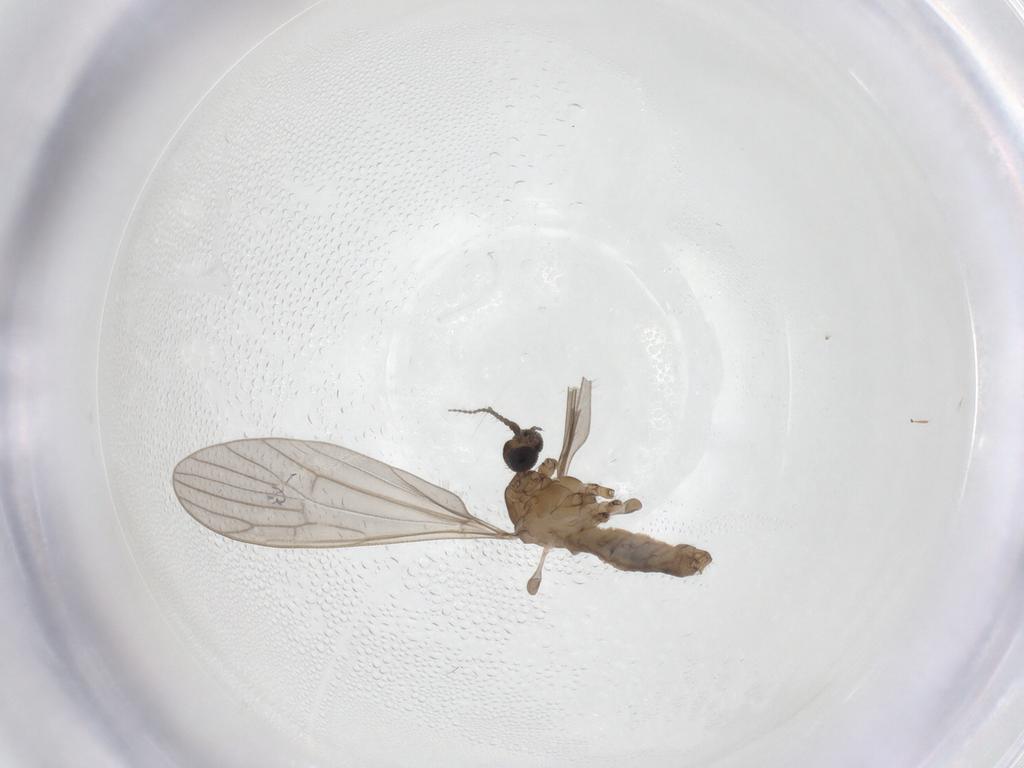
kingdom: Animalia
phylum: Arthropoda
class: Insecta
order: Diptera
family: Limoniidae
